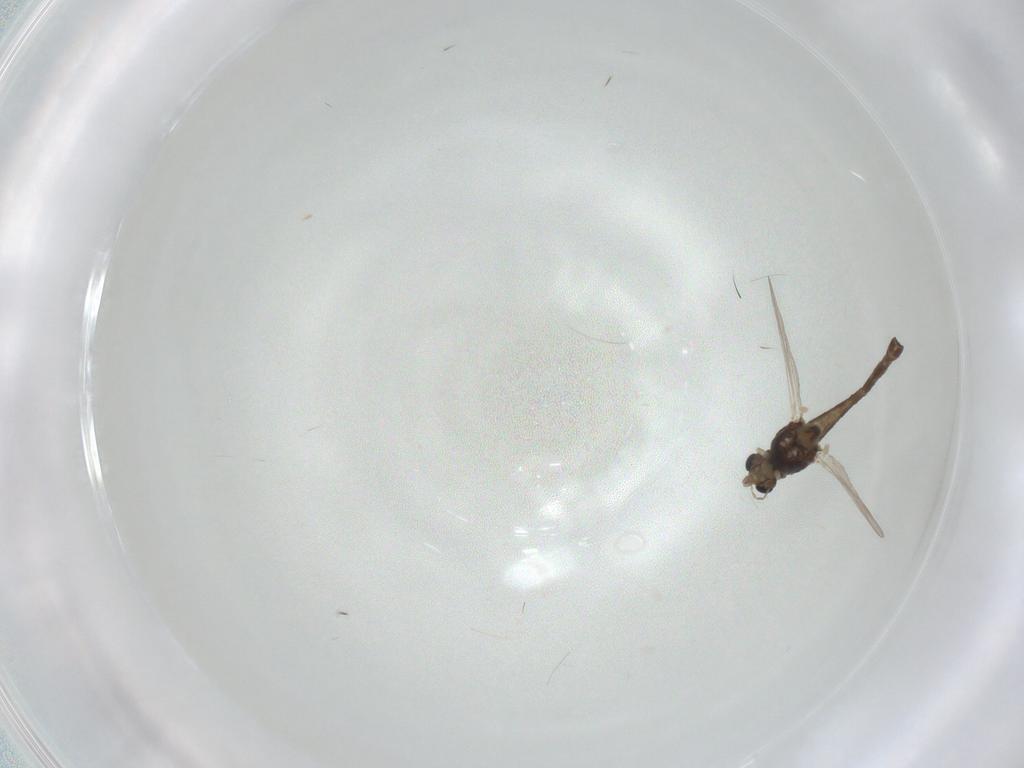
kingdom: Animalia
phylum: Arthropoda
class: Insecta
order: Diptera
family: Chironomidae
